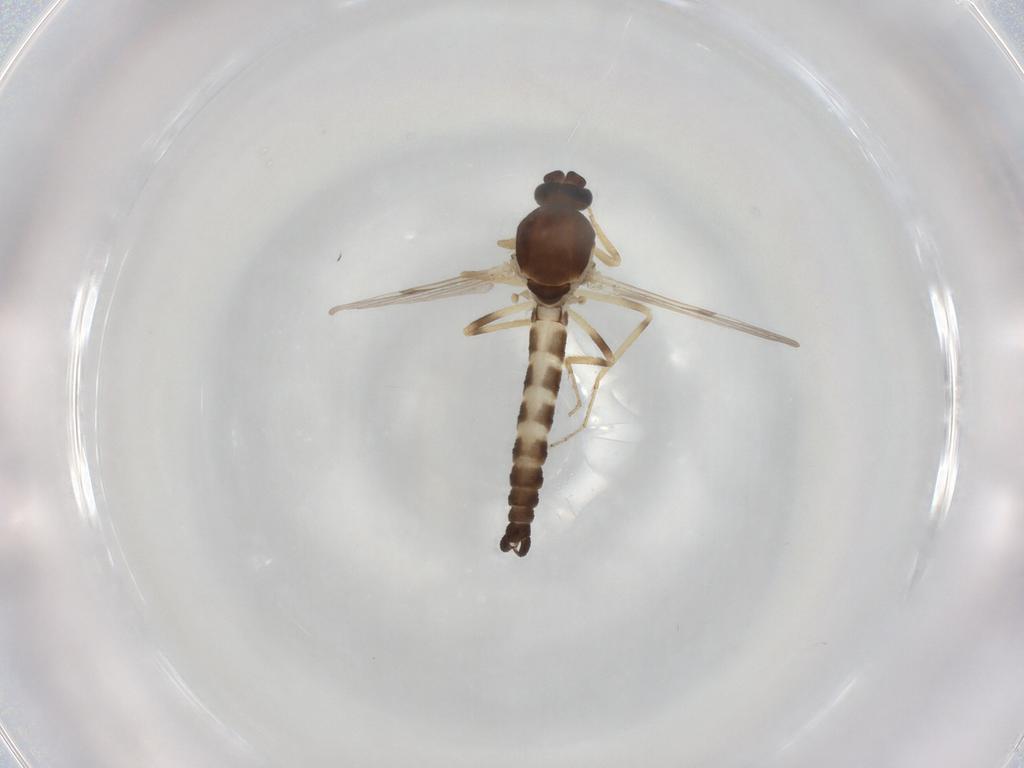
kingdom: Animalia
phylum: Arthropoda
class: Insecta
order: Diptera
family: Ceratopogonidae
